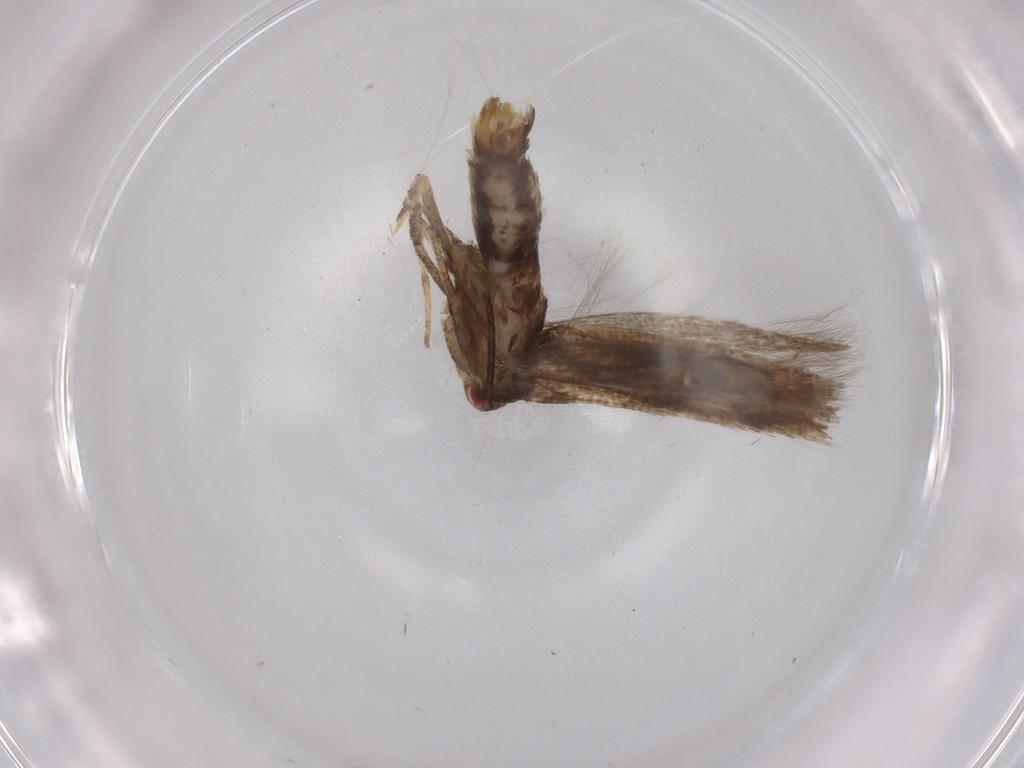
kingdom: Animalia
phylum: Arthropoda
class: Insecta
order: Lepidoptera
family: Momphidae
